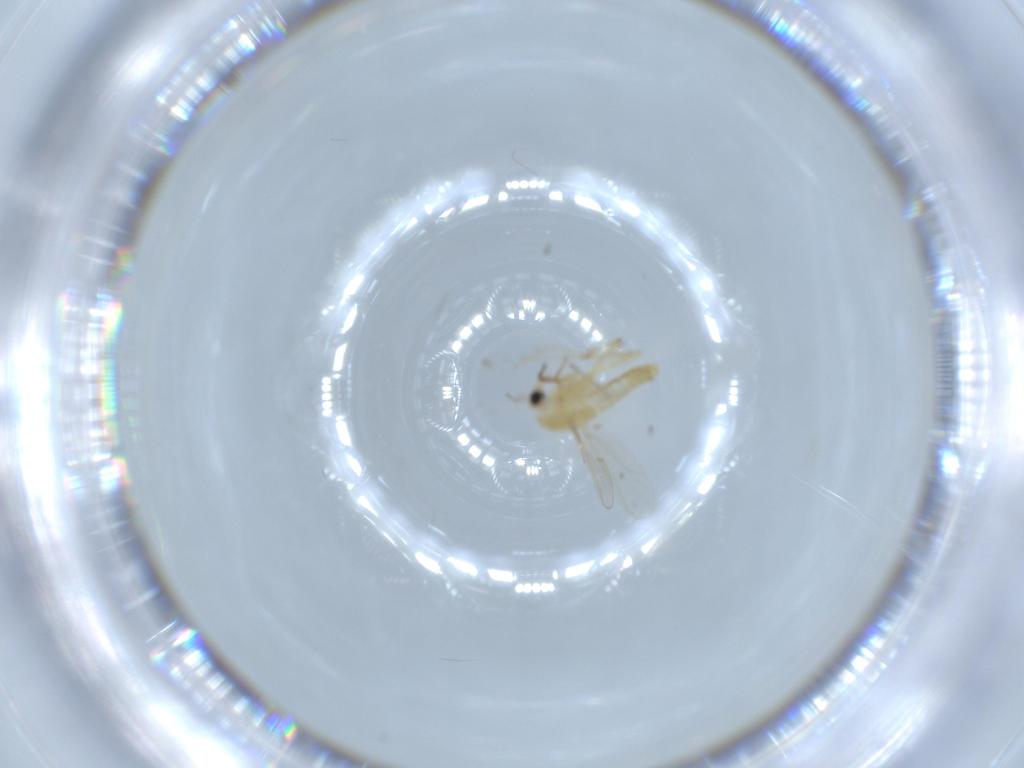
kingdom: Animalia
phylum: Arthropoda
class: Insecta
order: Diptera
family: Chironomidae
